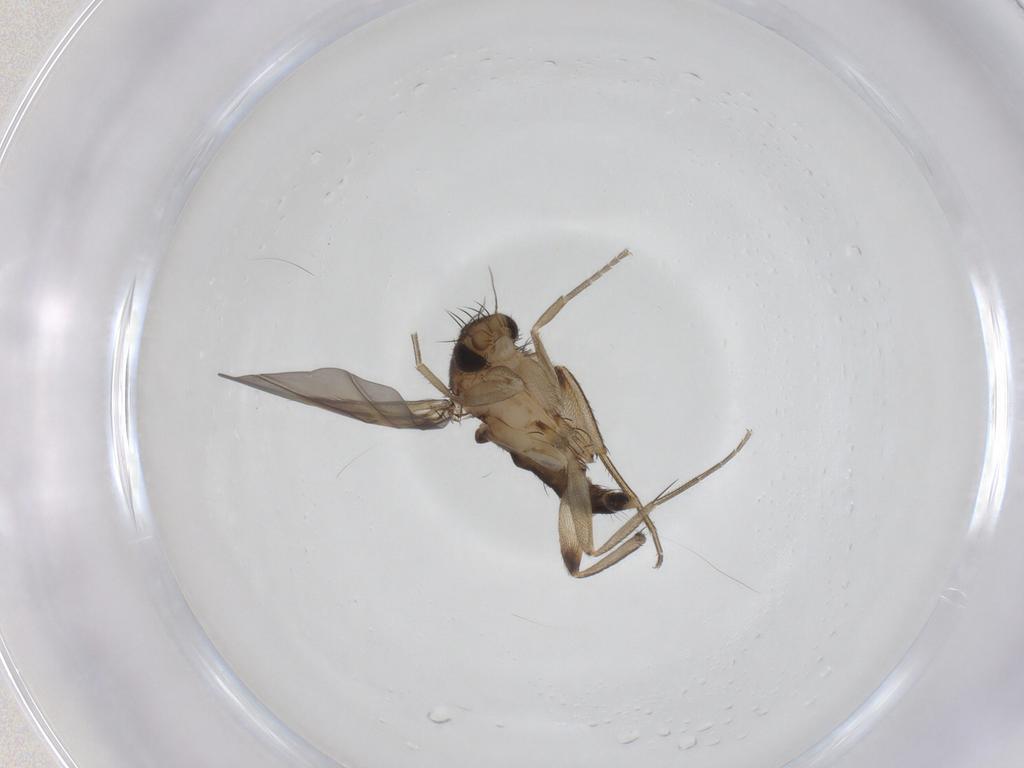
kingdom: Animalia
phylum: Arthropoda
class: Insecta
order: Diptera
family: Phoridae
